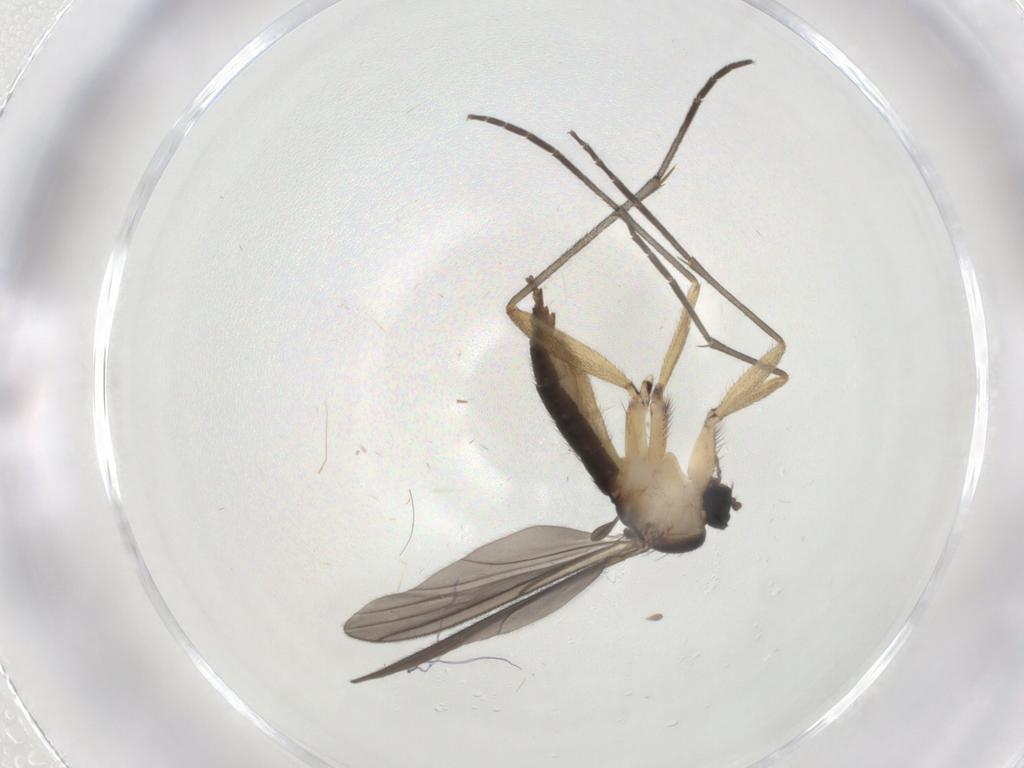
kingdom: Animalia
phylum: Arthropoda
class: Insecta
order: Diptera
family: Sciaridae
